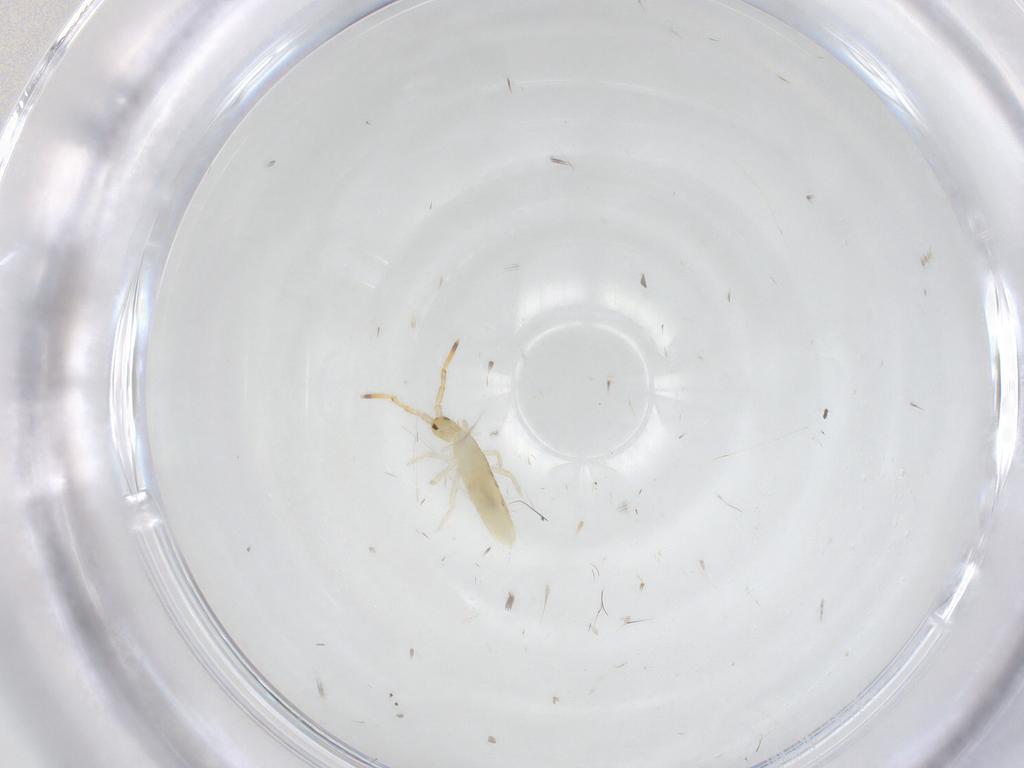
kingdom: Animalia
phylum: Arthropoda
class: Collembola
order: Entomobryomorpha
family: Entomobryidae
